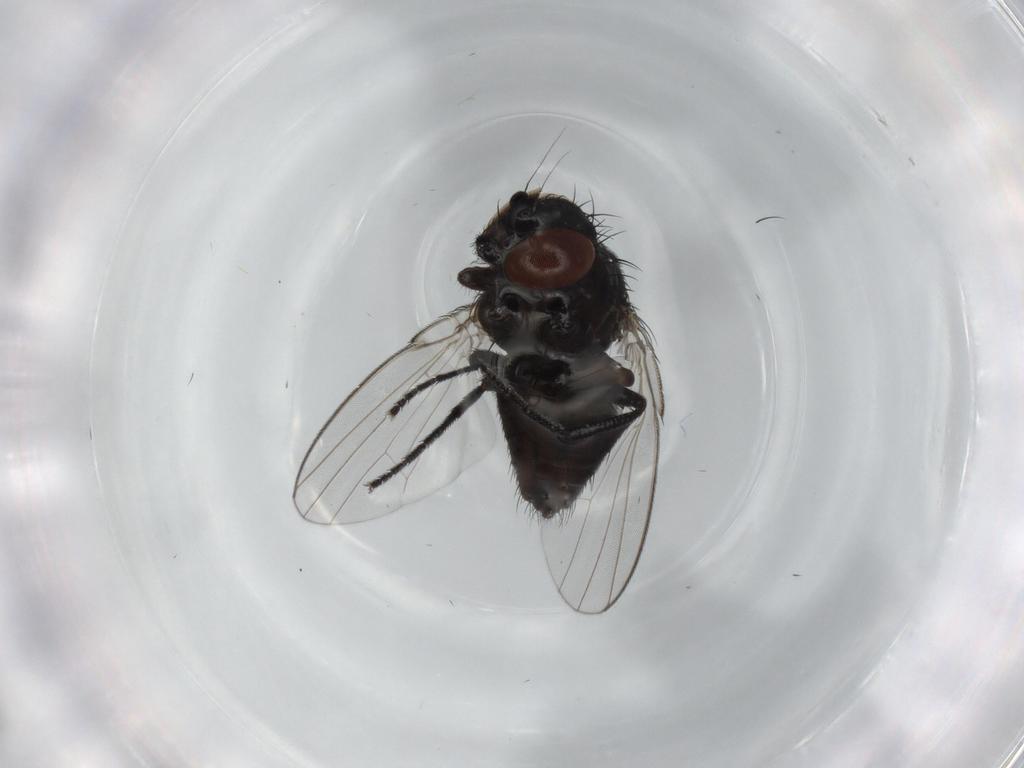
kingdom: Animalia
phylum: Arthropoda
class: Insecta
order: Diptera
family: Milichiidae
